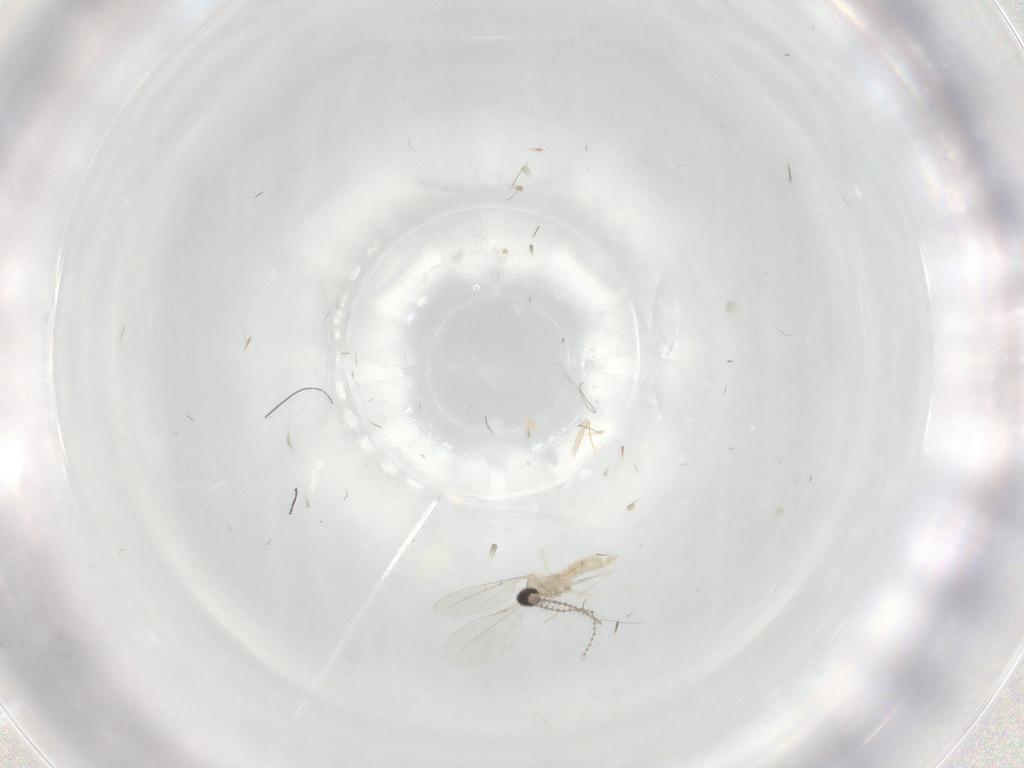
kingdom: Animalia
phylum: Arthropoda
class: Insecta
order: Diptera
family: Cecidomyiidae
